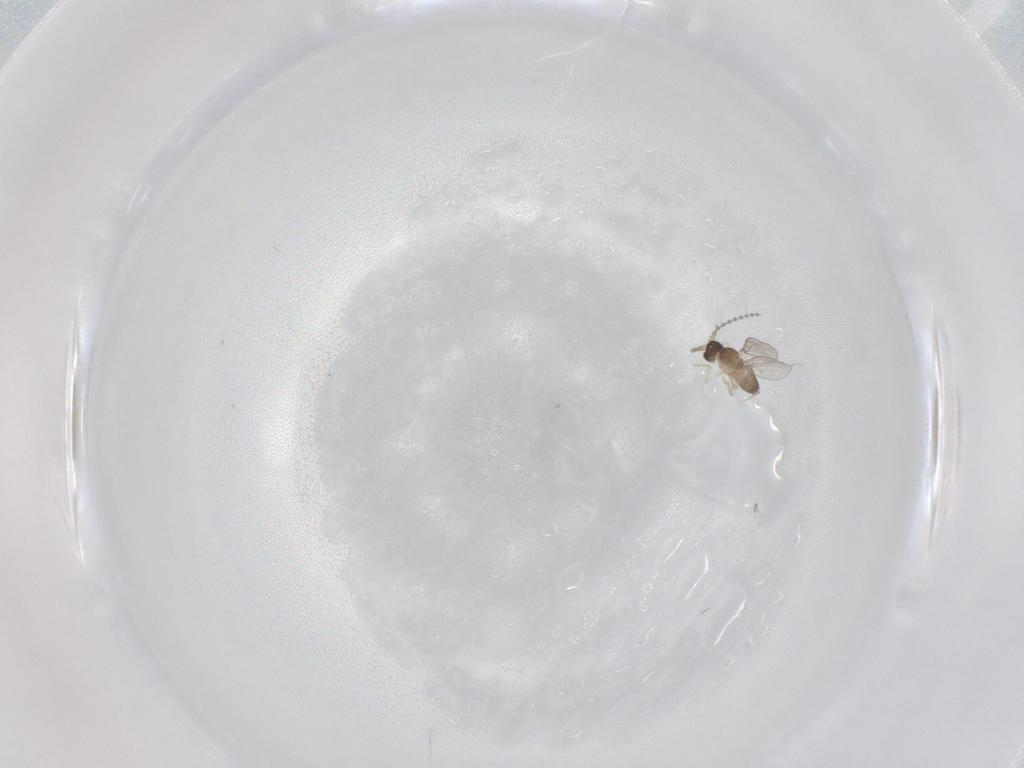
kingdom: Animalia
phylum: Arthropoda
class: Insecta
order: Diptera
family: Cecidomyiidae
